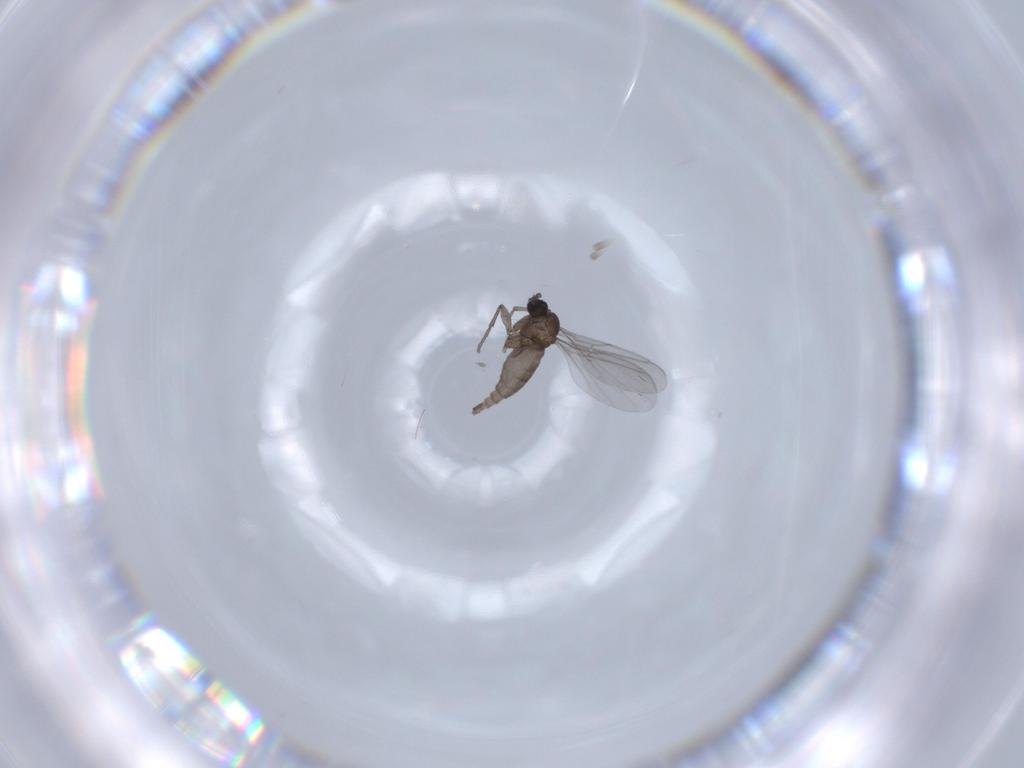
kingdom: Animalia
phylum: Arthropoda
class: Insecta
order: Diptera
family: Sciaridae
